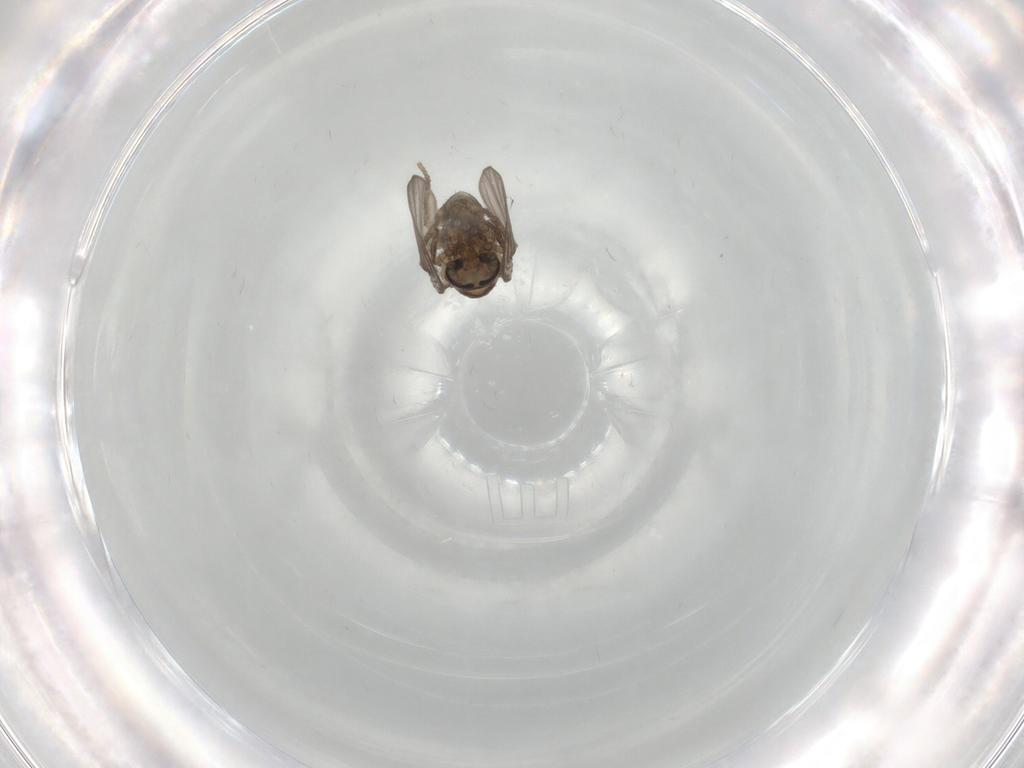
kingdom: Animalia
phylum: Arthropoda
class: Insecta
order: Diptera
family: Psychodidae
